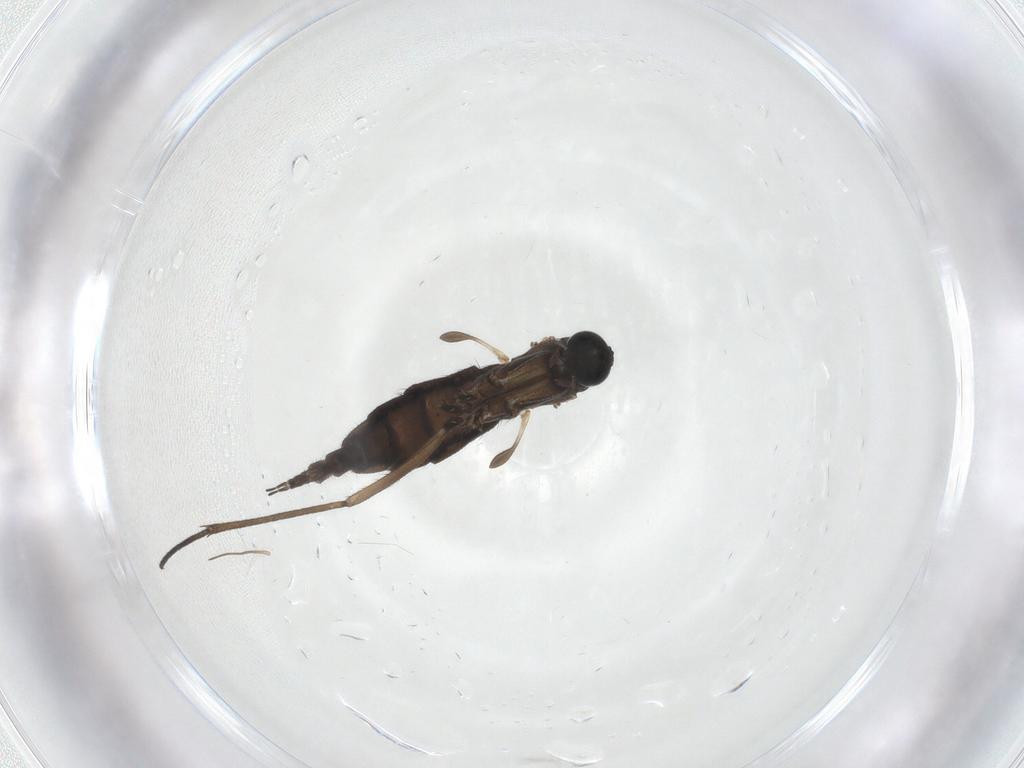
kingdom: Animalia
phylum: Arthropoda
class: Insecta
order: Diptera
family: Sciaridae
